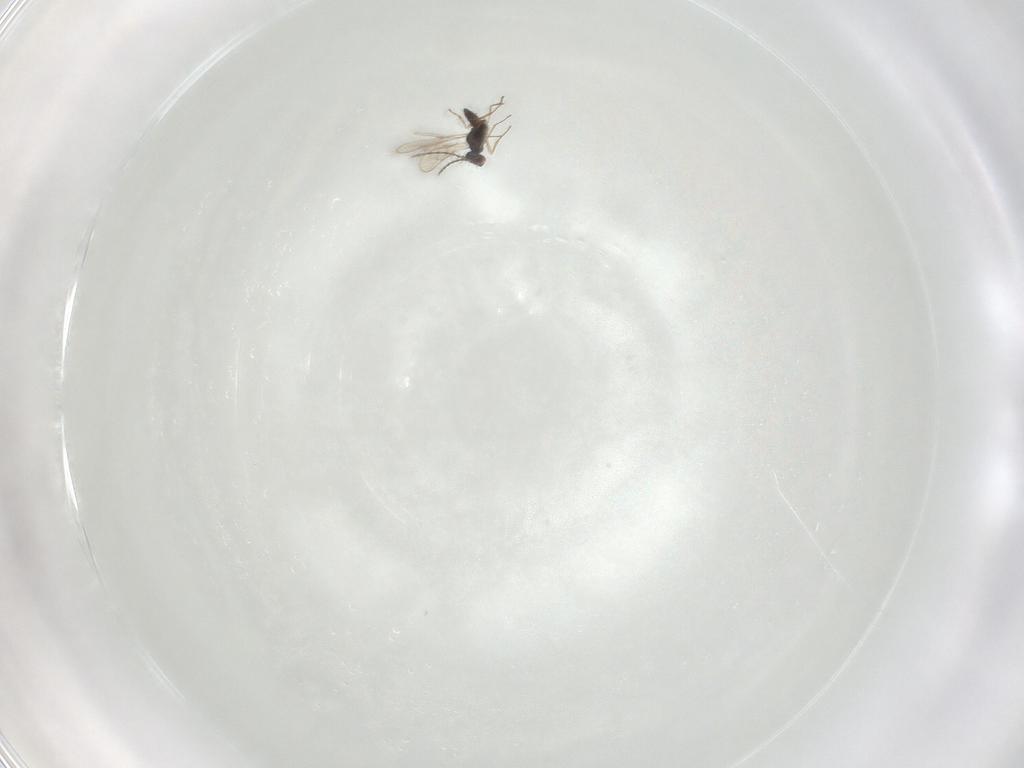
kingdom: Animalia
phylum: Arthropoda
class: Insecta
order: Hymenoptera
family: Pteromalidae
